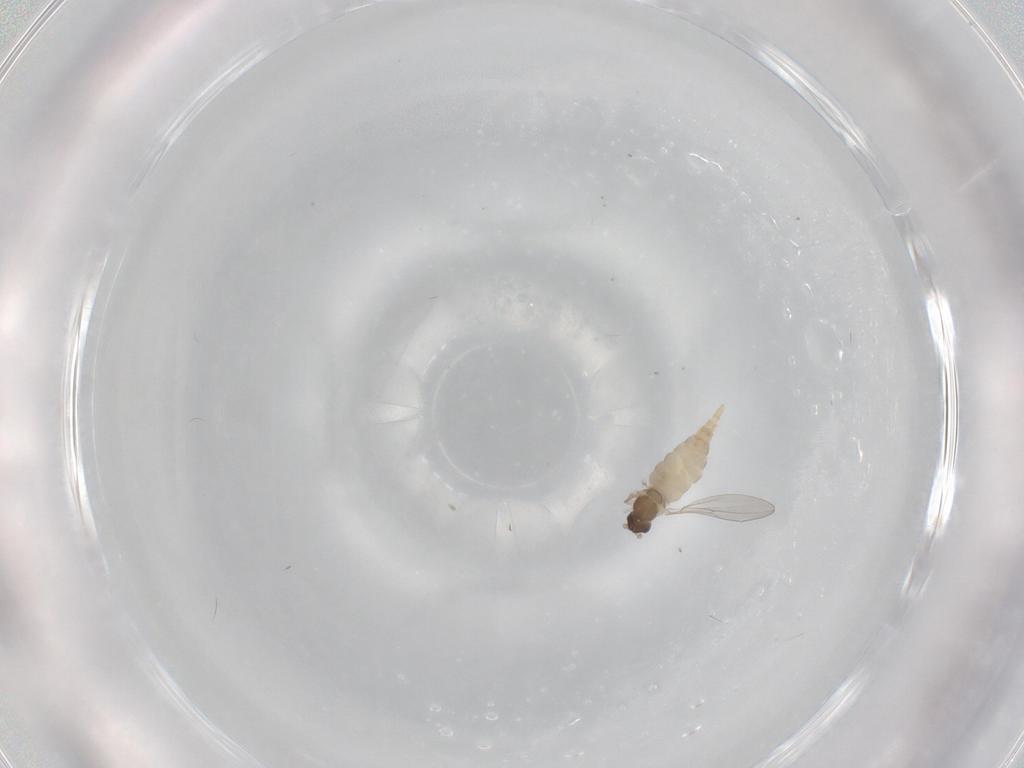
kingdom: Animalia
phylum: Arthropoda
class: Insecta
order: Diptera
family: Cecidomyiidae
